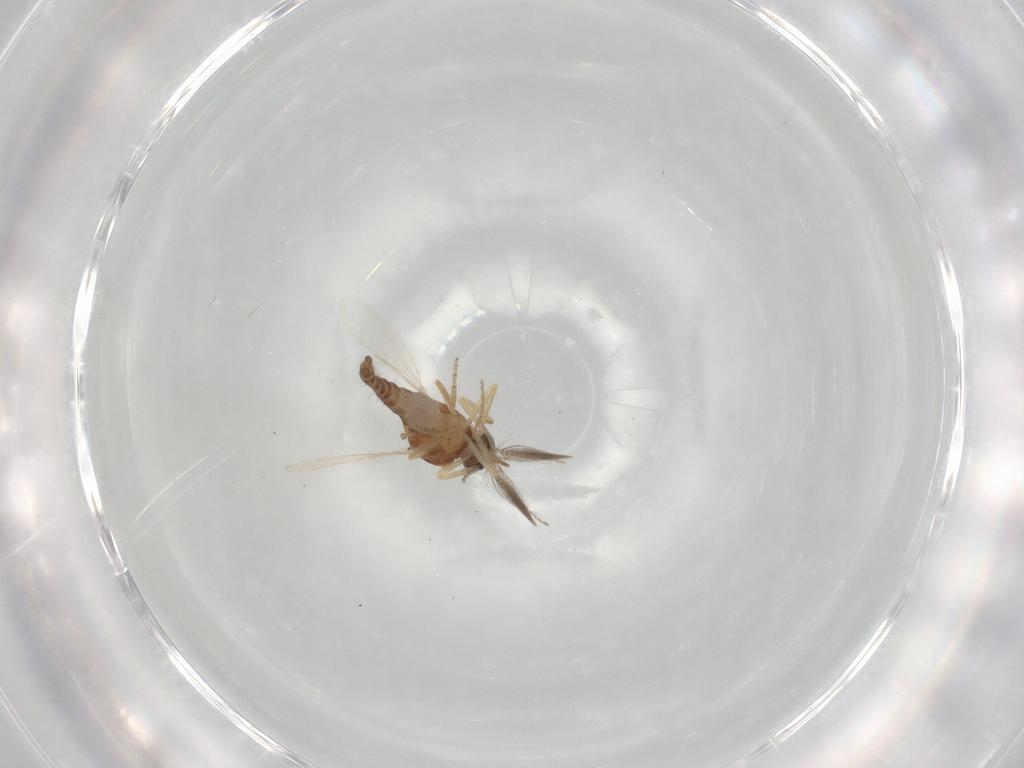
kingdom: Animalia
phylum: Arthropoda
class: Insecta
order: Diptera
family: Ceratopogonidae
